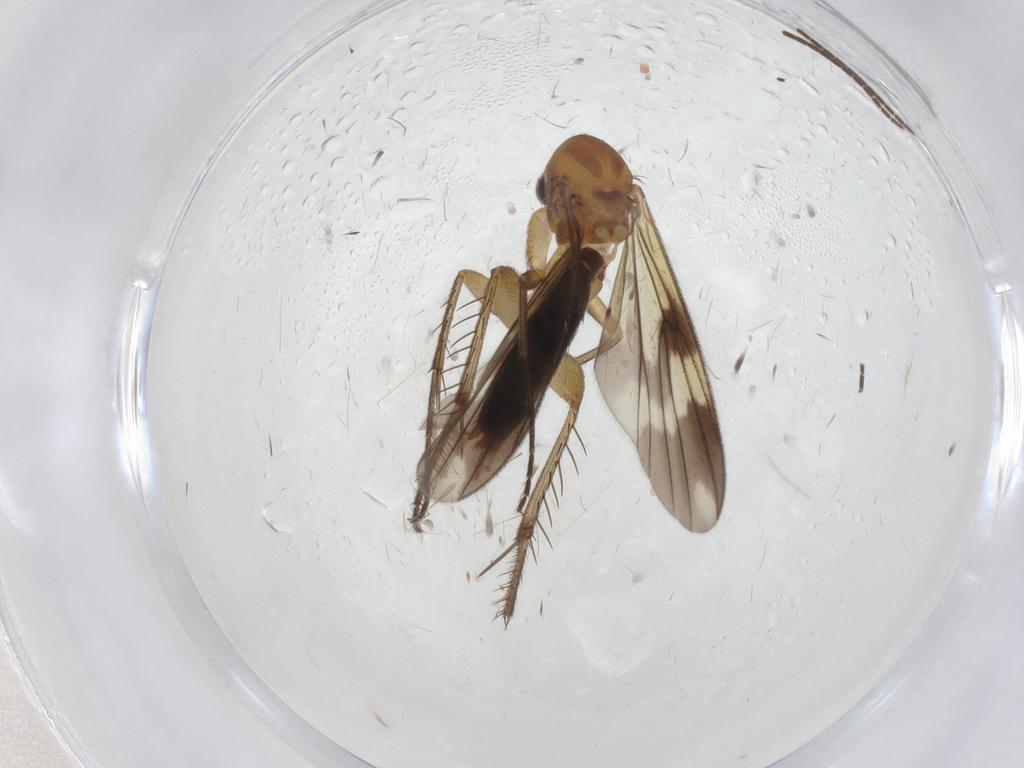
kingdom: Animalia
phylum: Arthropoda
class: Insecta
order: Diptera
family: Mycetophilidae
